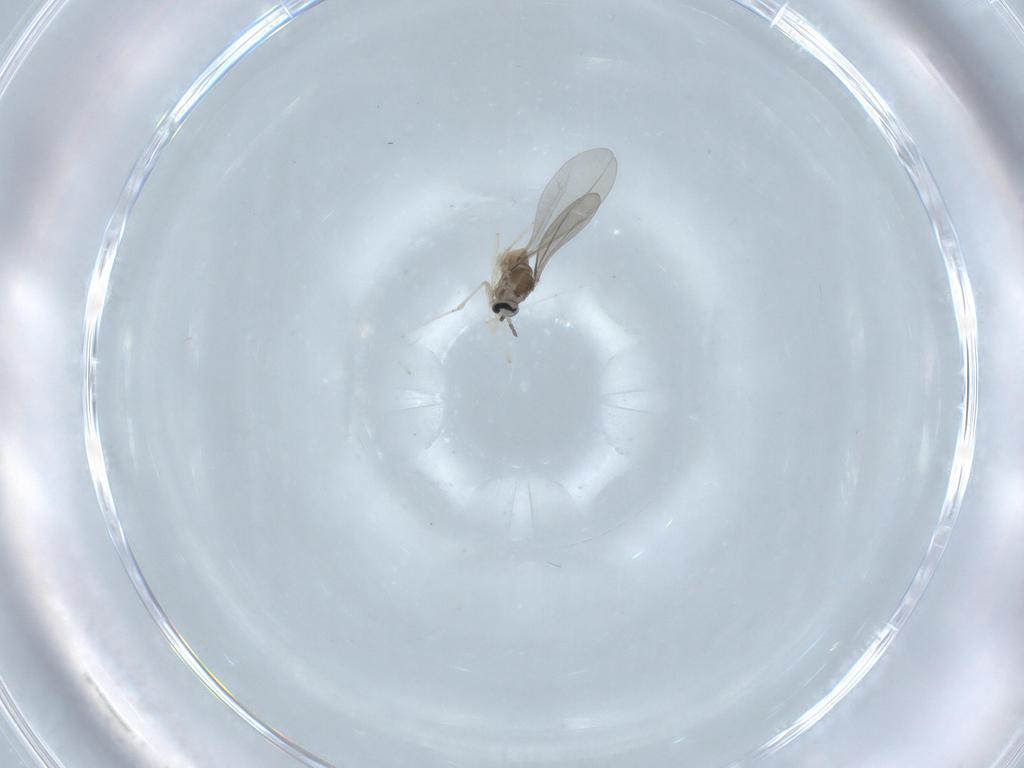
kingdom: Animalia
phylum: Arthropoda
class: Insecta
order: Diptera
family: Cecidomyiidae
